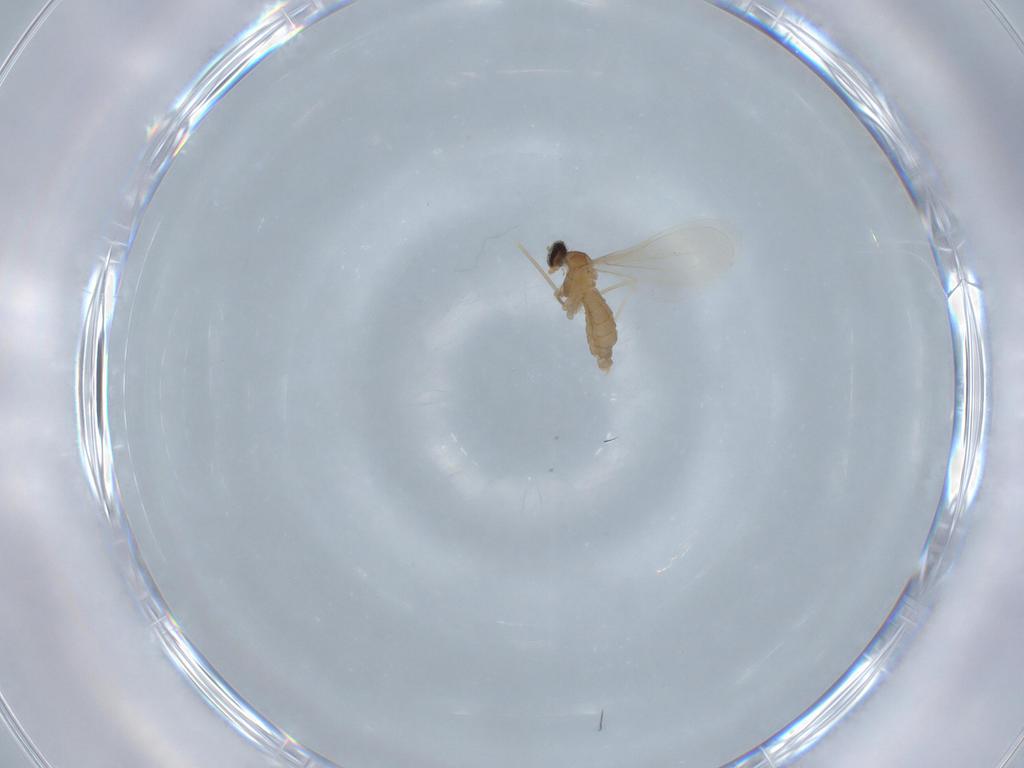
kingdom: Animalia
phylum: Arthropoda
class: Insecta
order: Diptera
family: Cecidomyiidae
